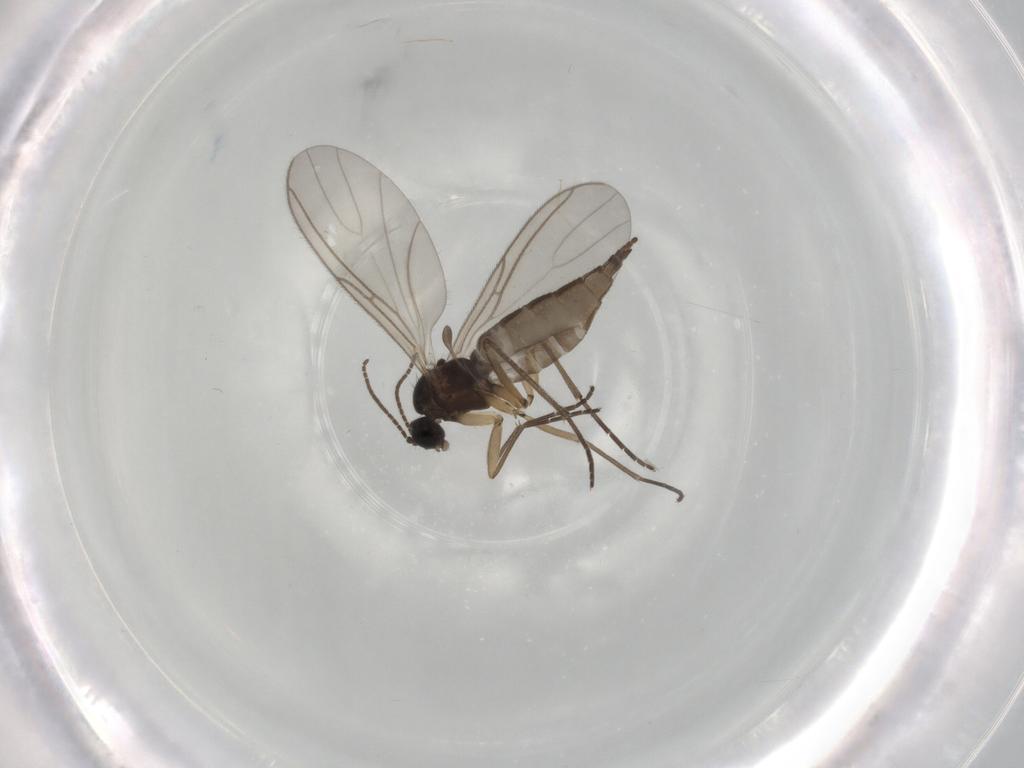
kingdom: Animalia
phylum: Arthropoda
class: Insecta
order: Diptera
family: Sciaridae
